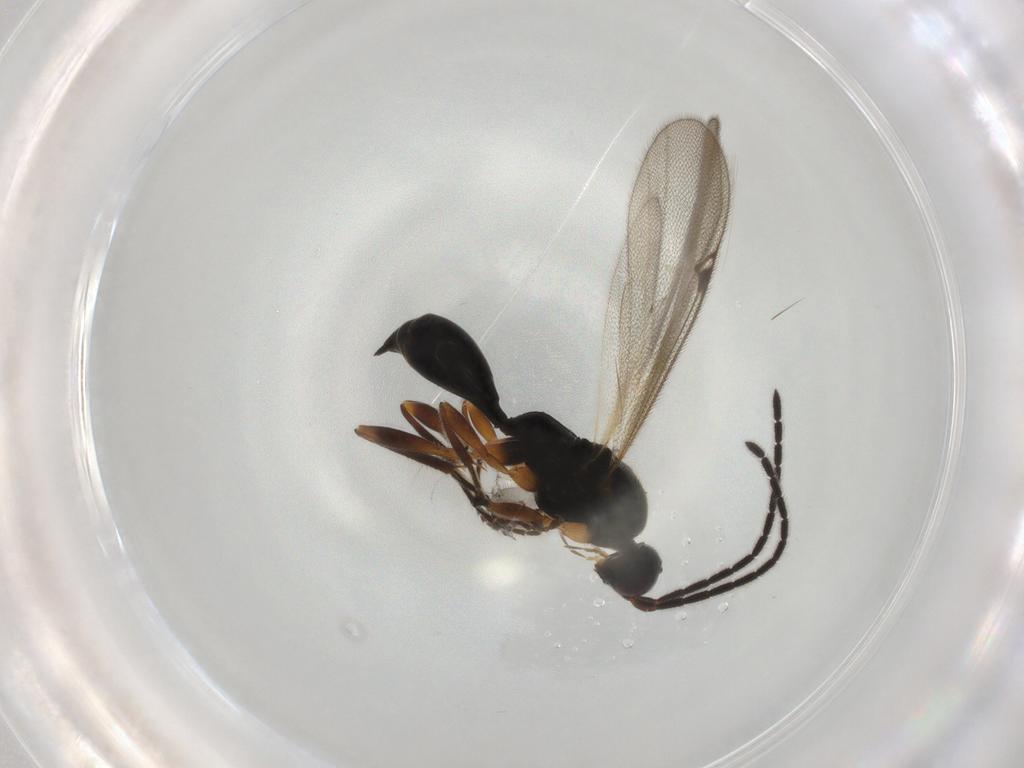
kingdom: Animalia
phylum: Arthropoda
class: Insecta
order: Hymenoptera
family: Proctotrupidae
